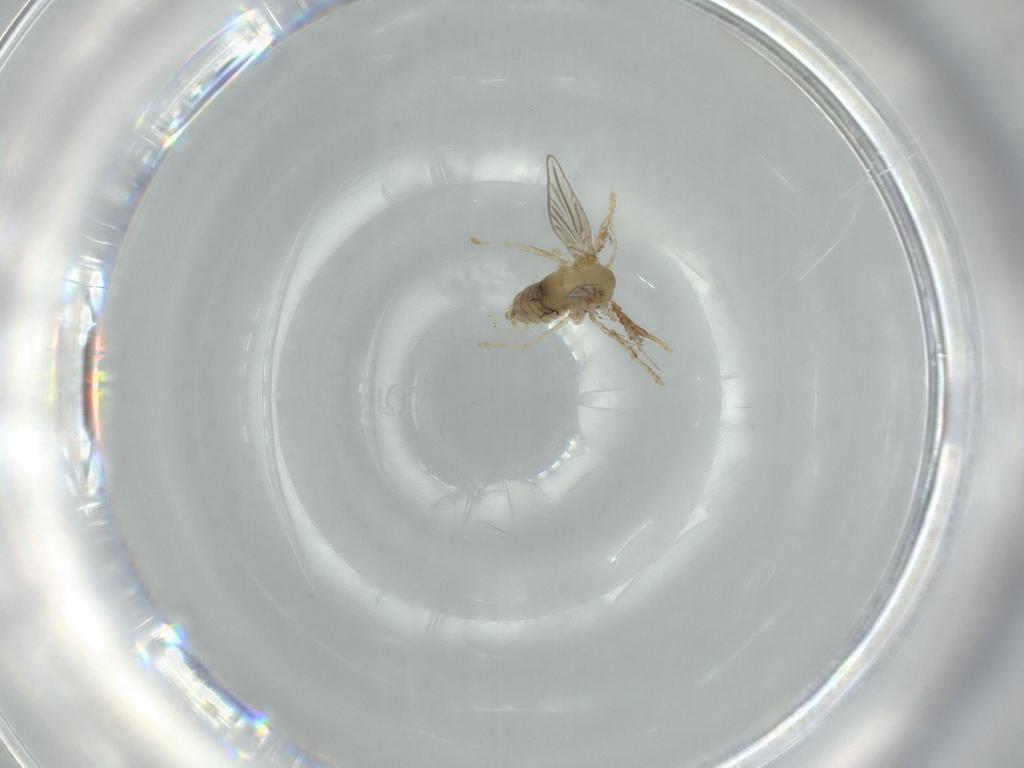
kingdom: Animalia
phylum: Arthropoda
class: Insecta
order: Diptera
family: Psychodidae
